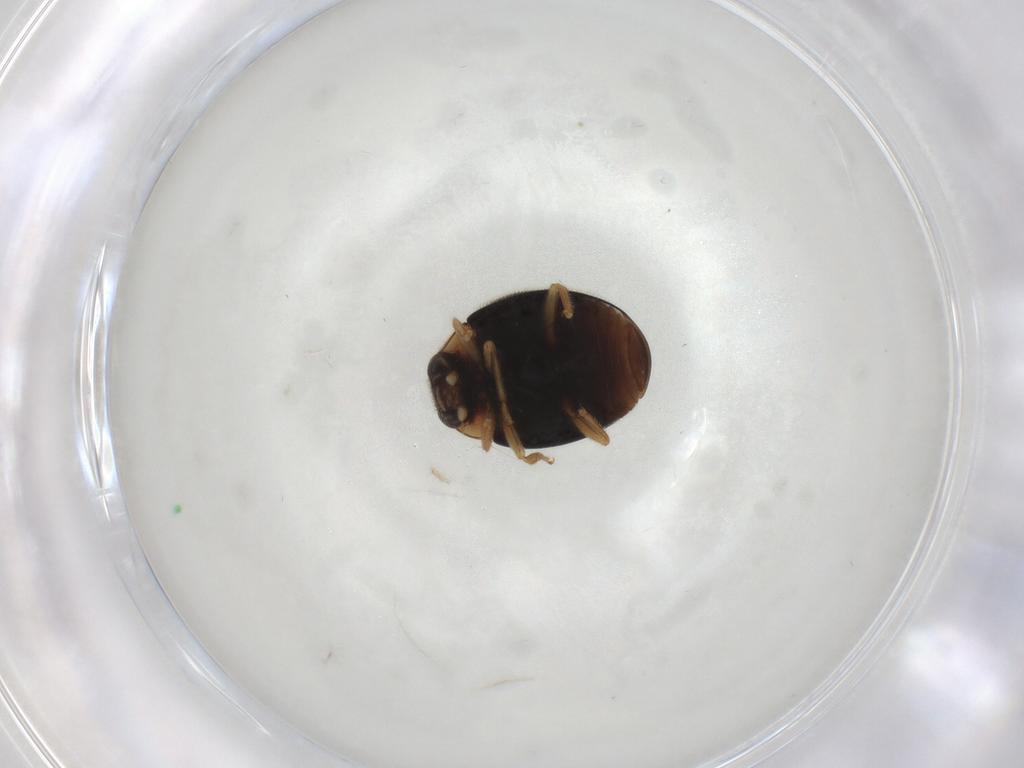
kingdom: Animalia
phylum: Arthropoda
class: Insecta
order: Coleoptera
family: Coccinellidae
